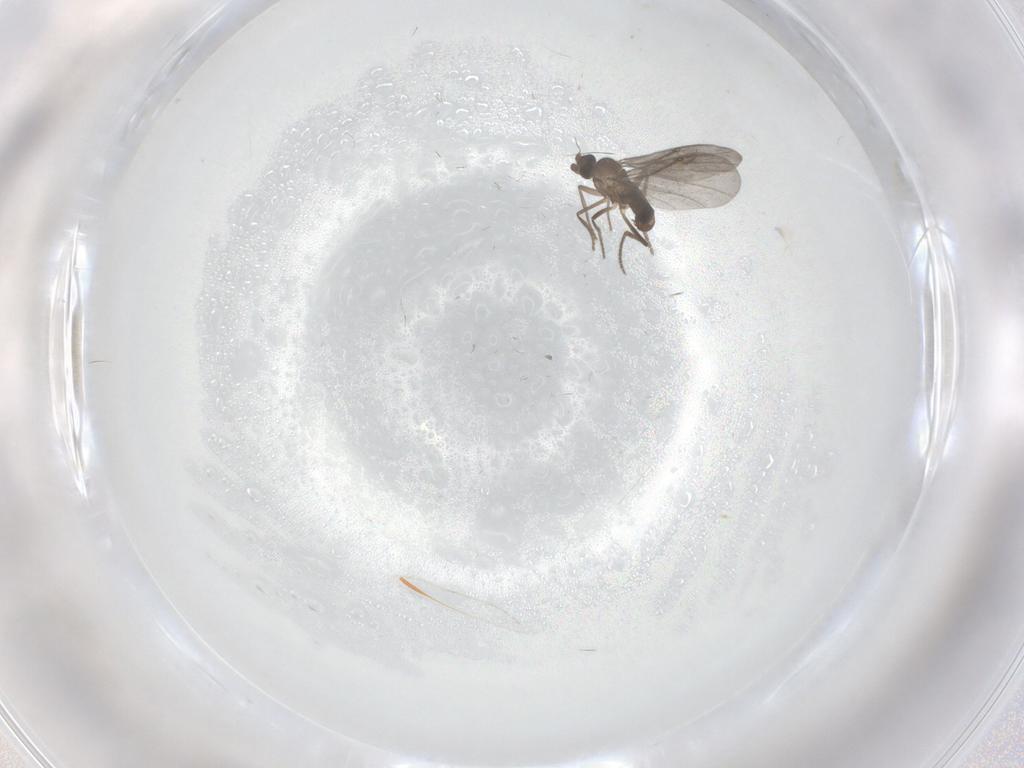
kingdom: Animalia
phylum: Arthropoda
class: Insecta
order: Diptera
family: Phoridae
